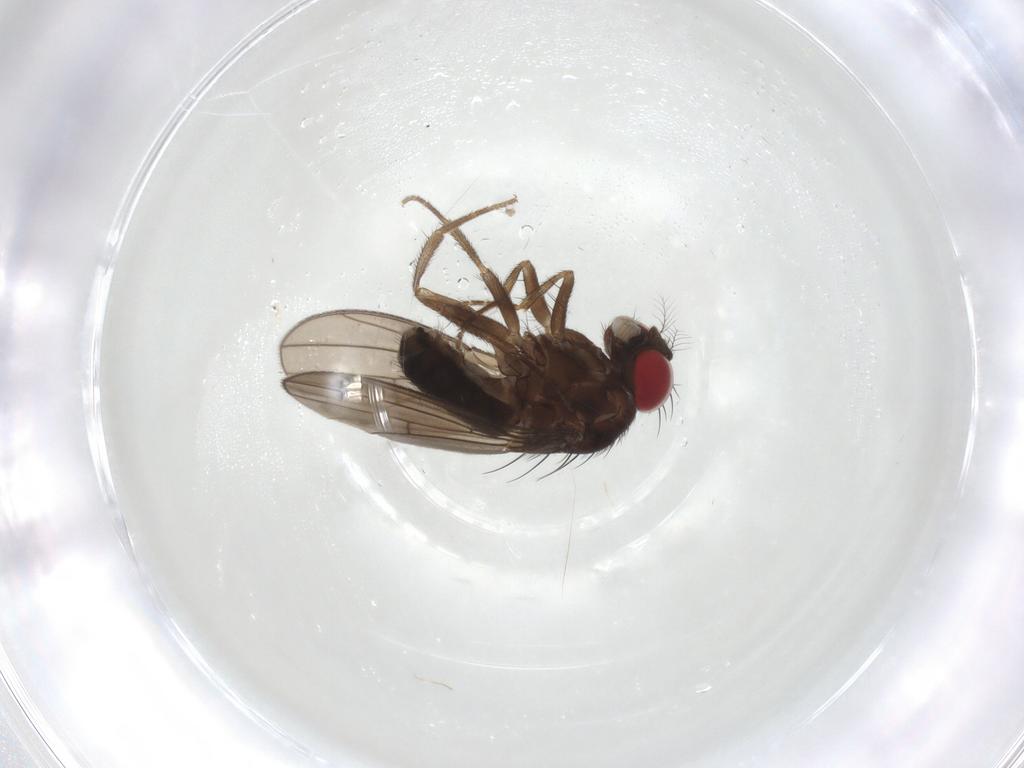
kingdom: Animalia
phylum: Arthropoda
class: Insecta
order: Diptera
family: Drosophilidae
